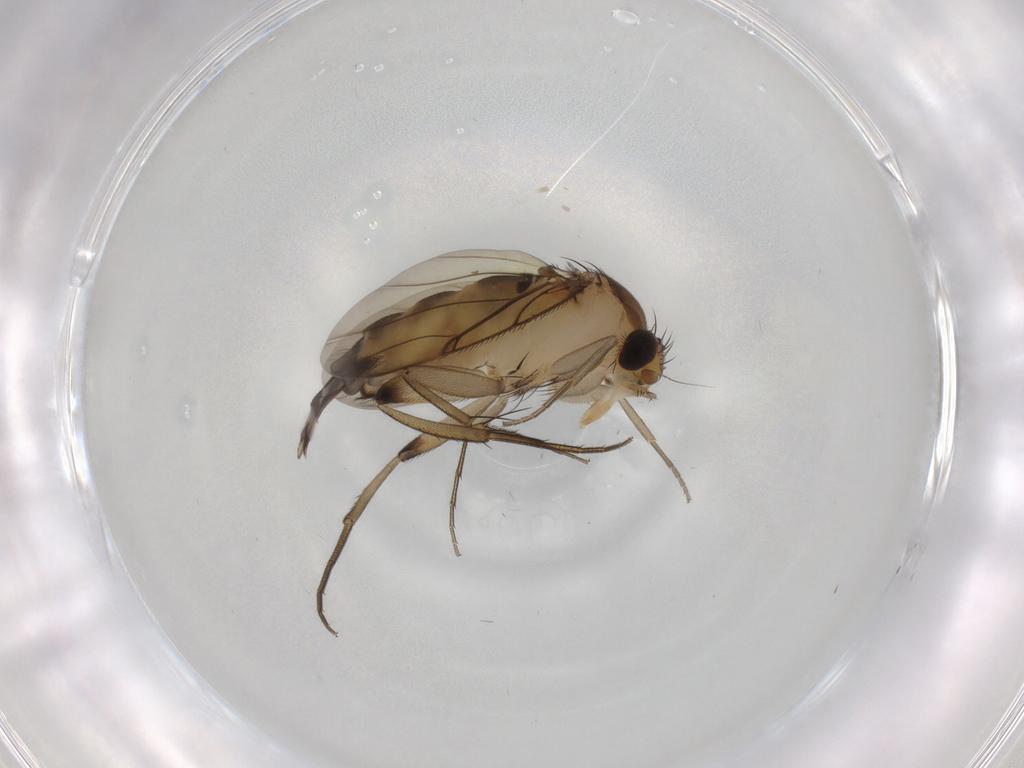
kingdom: Animalia
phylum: Arthropoda
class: Insecta
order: Diptera
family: Phoridae
